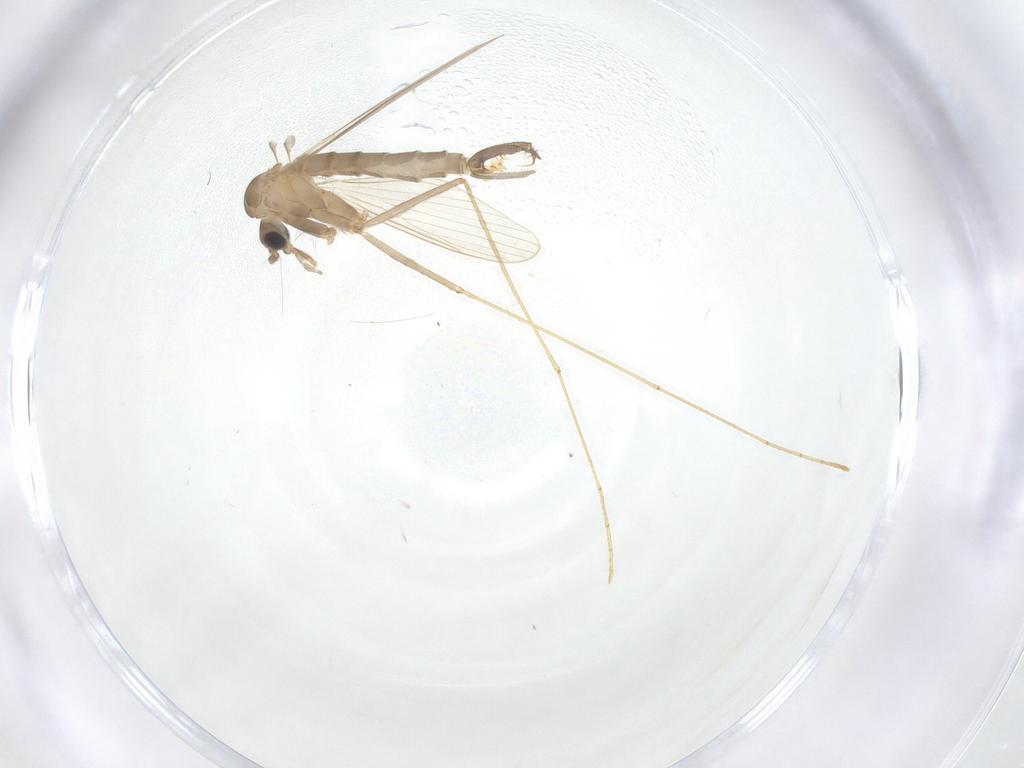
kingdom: Animalia
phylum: Arthropoda
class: Insecta
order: Diptera
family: Psychodidae
